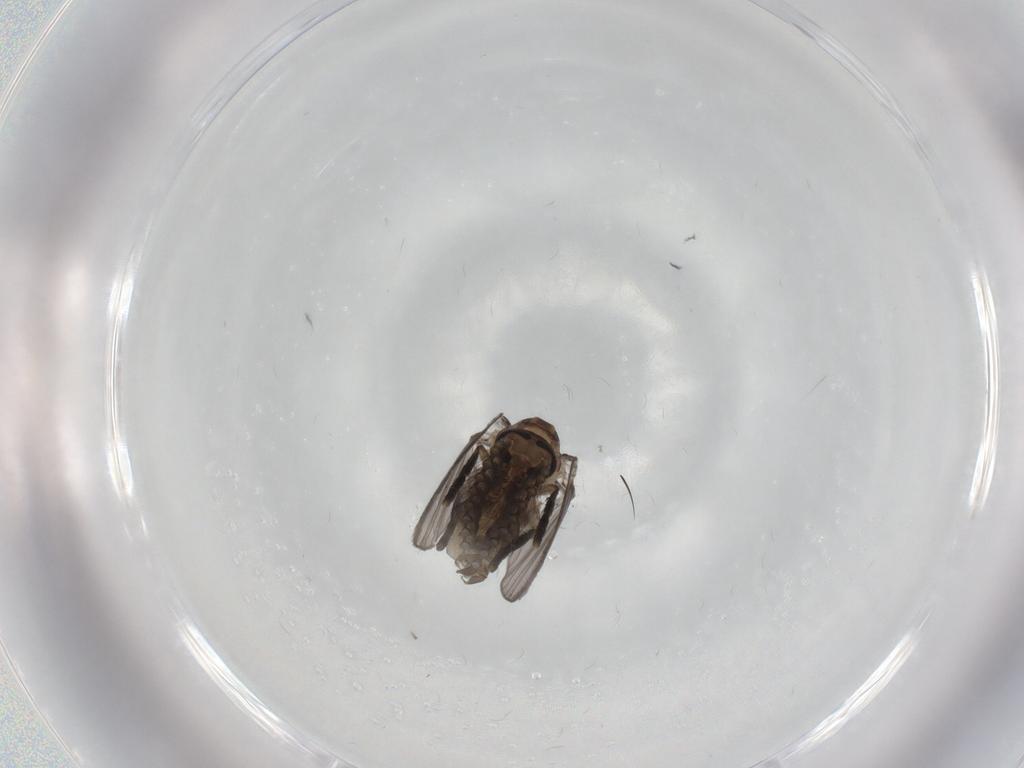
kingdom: Animalia
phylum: Arthropoda
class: Insecta
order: Diptera
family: Psychodidae
